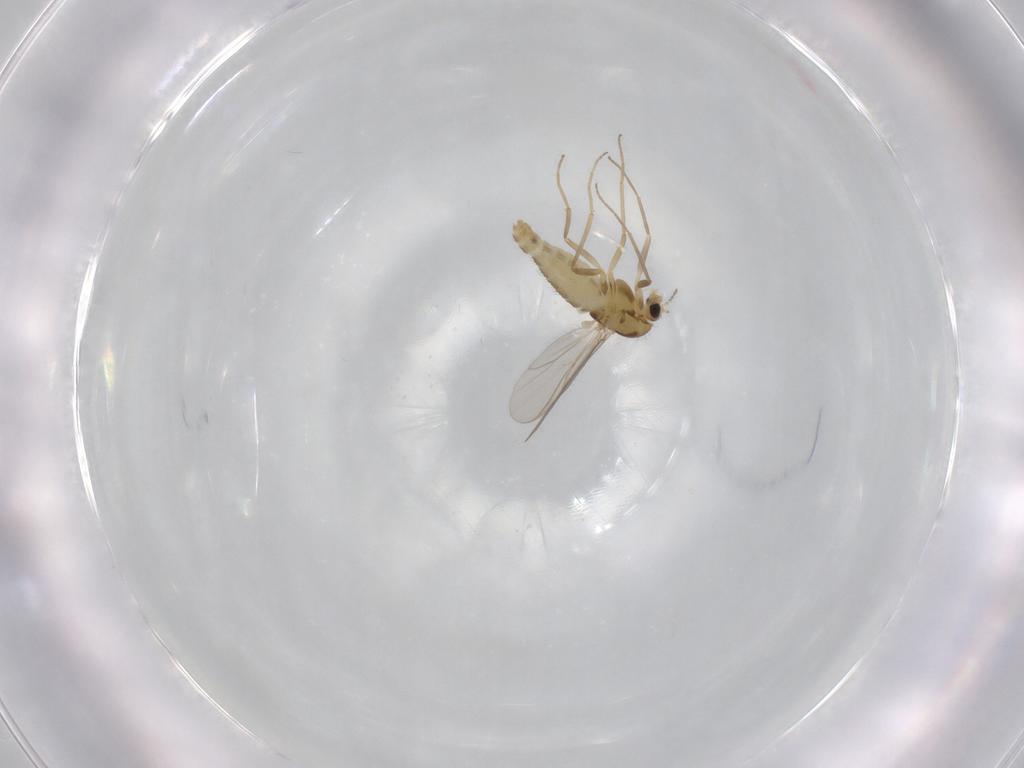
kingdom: Animalia
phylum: Arthropoda
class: Insecta
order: Diptera
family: Chironomidae
